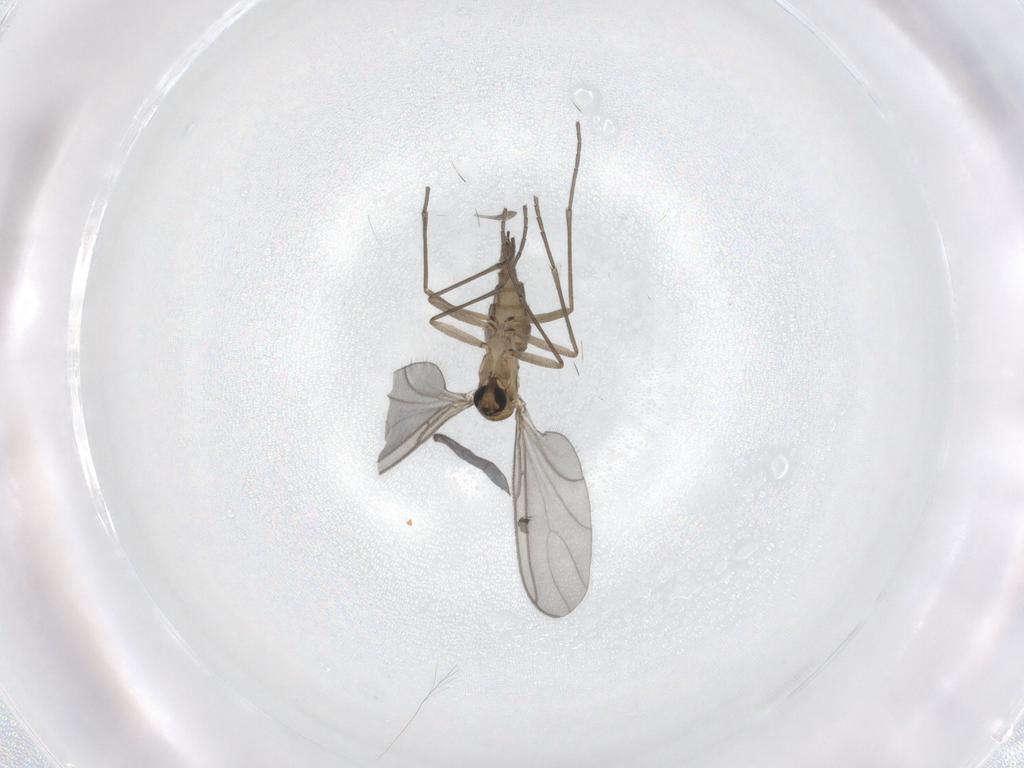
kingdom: Animalia
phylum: Arthropoda
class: Insecta
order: Diptera
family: Sciaridae
